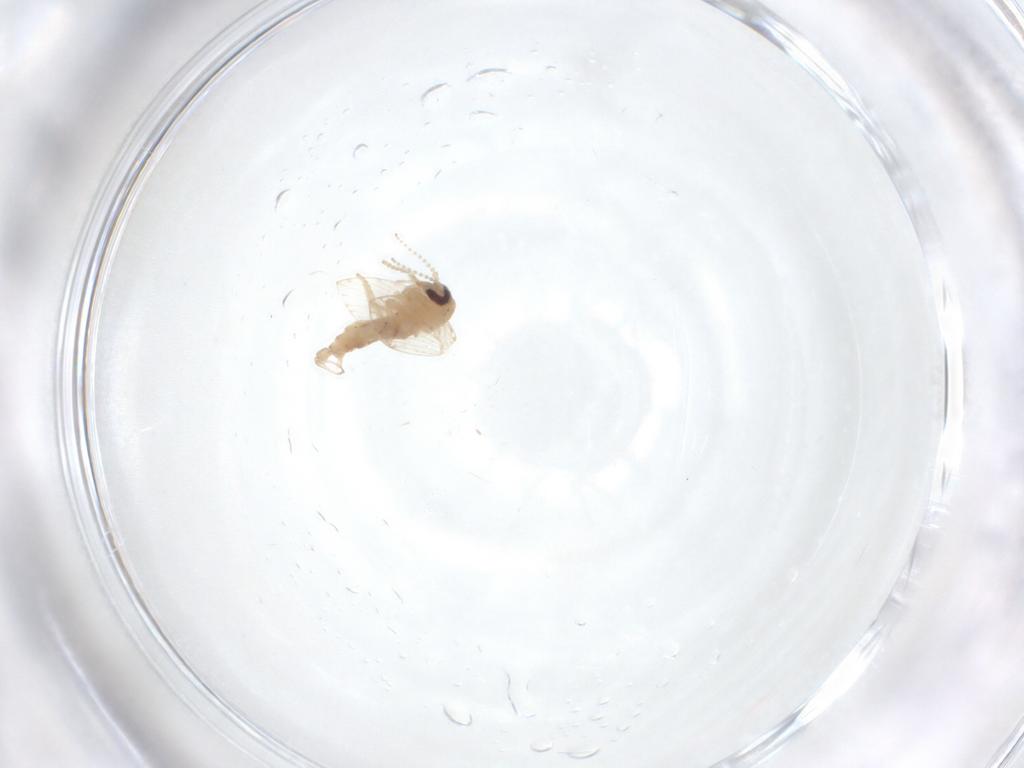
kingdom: Animalia
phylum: Arthropoda
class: Insecta
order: Diptera
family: Psychodidae
